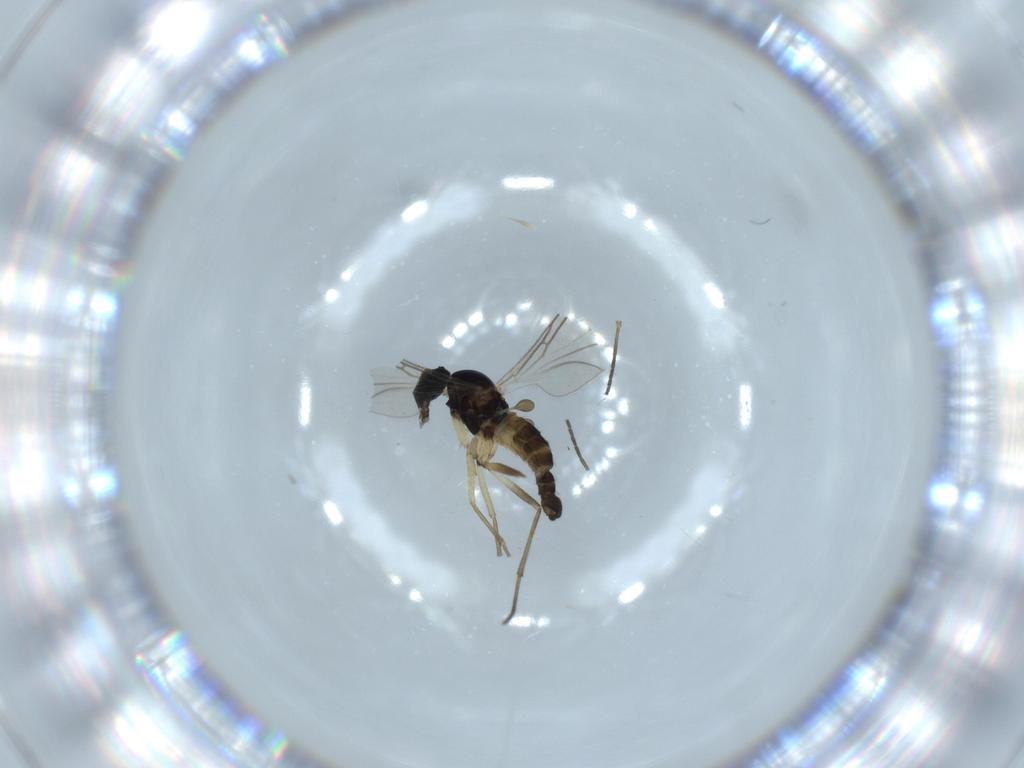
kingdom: Animalia
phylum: Arthropoda
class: Insecta
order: Diptera
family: Sciaridae
